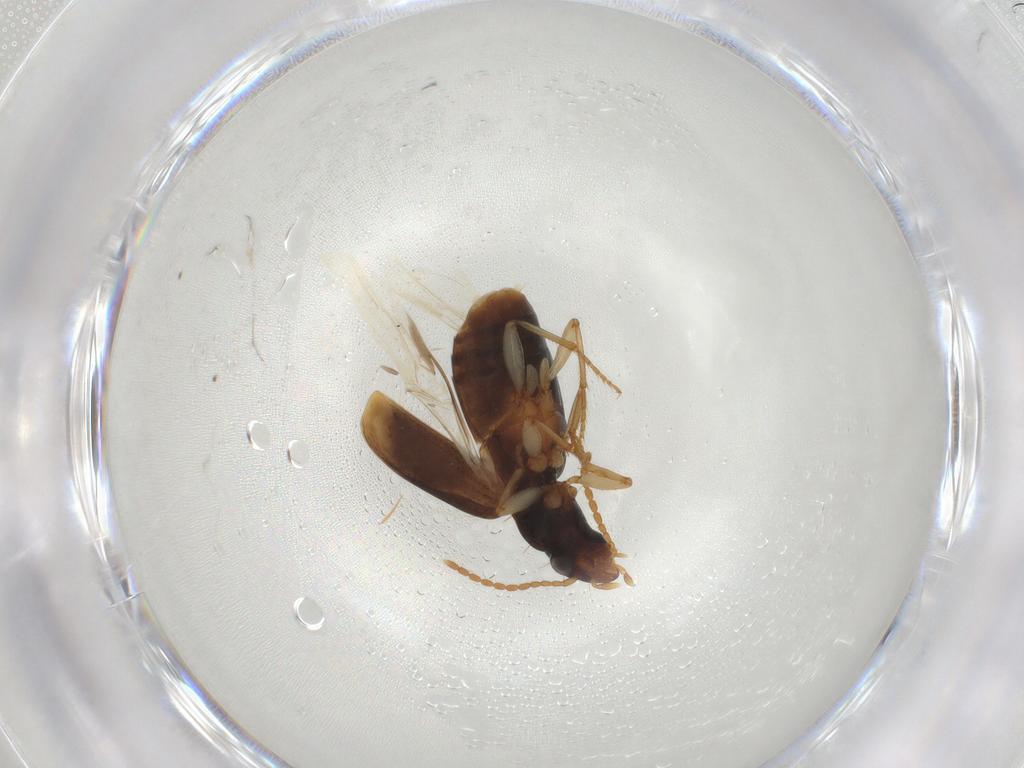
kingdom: Animalia
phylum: Arthropoda
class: Insecta
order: Coleoptera
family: Carabidae
